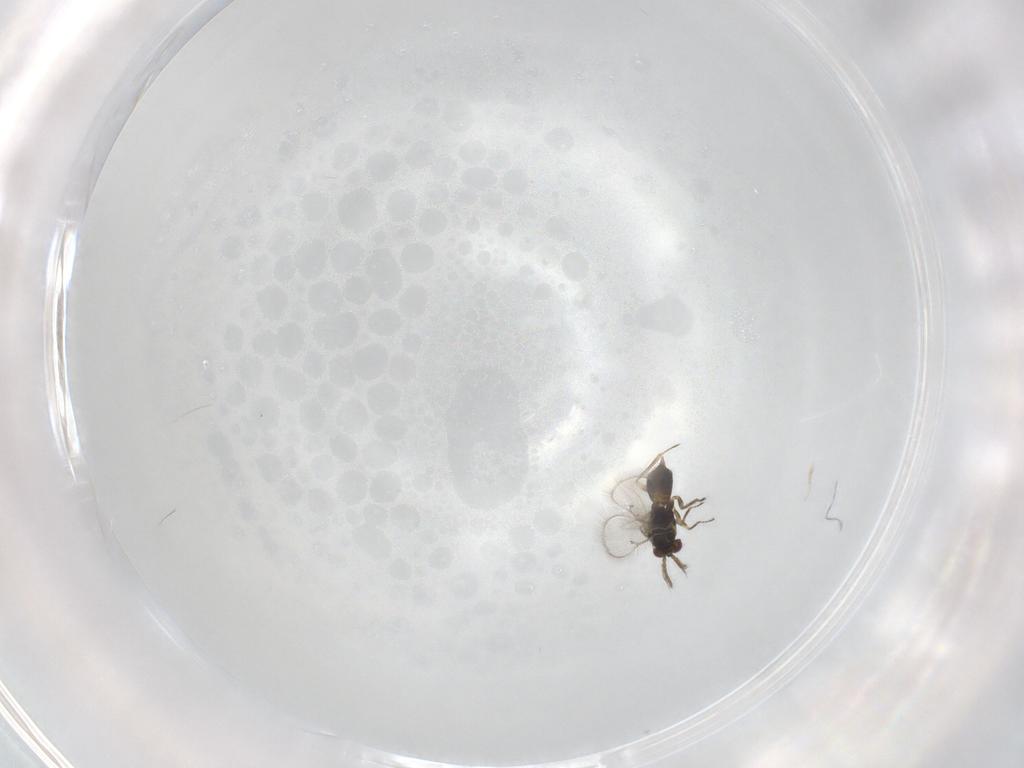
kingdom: Animalia
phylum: Arthropoda
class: Insecta
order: Hymenoptera
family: Eulophidae
